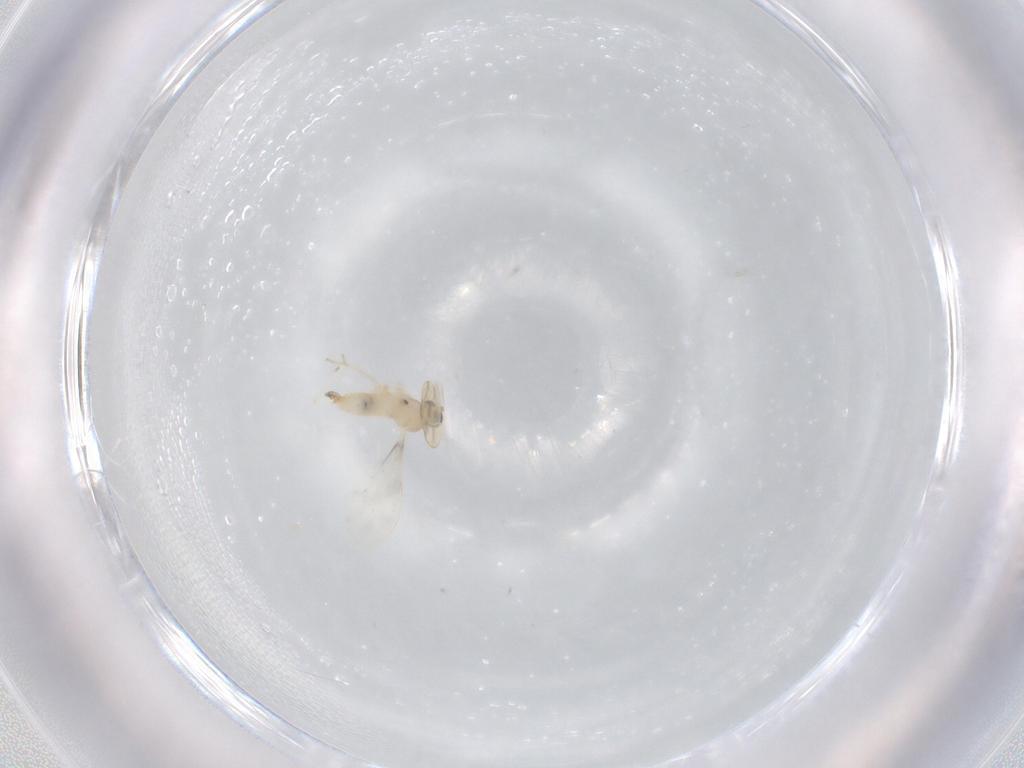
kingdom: Animalia
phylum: Arthropoda
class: Insecta
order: Diptera
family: Cecidomyiidae
